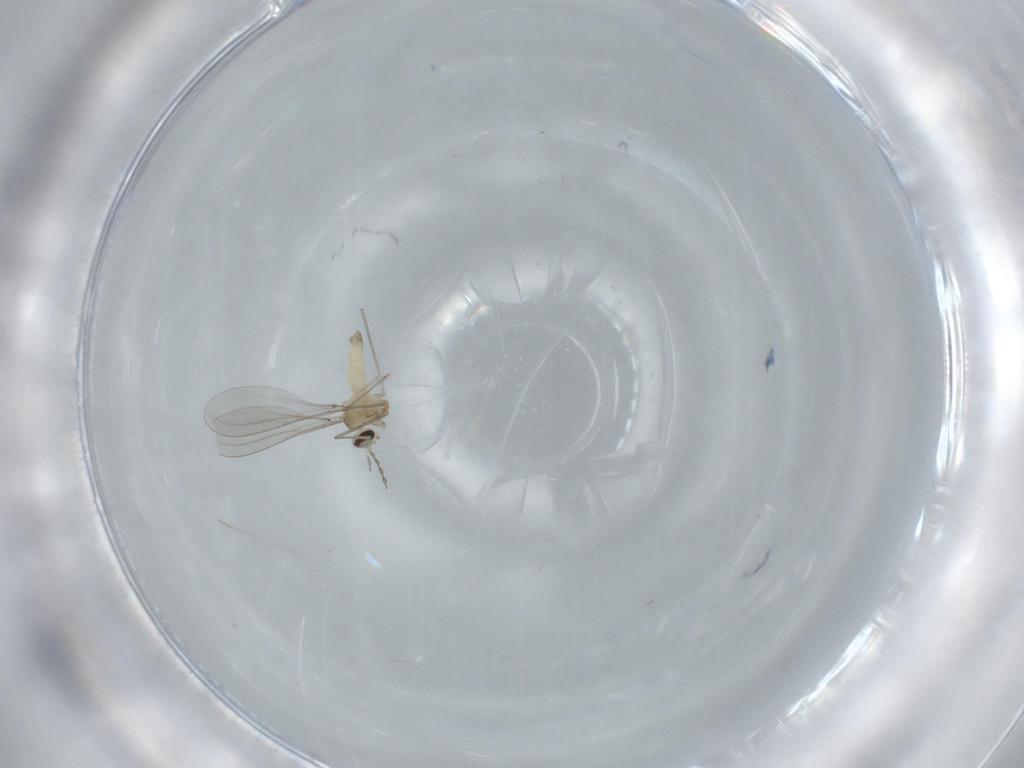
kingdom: Animalia
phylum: Arthropoda
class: Insecta
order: Diptera
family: Cecidomyiidae
